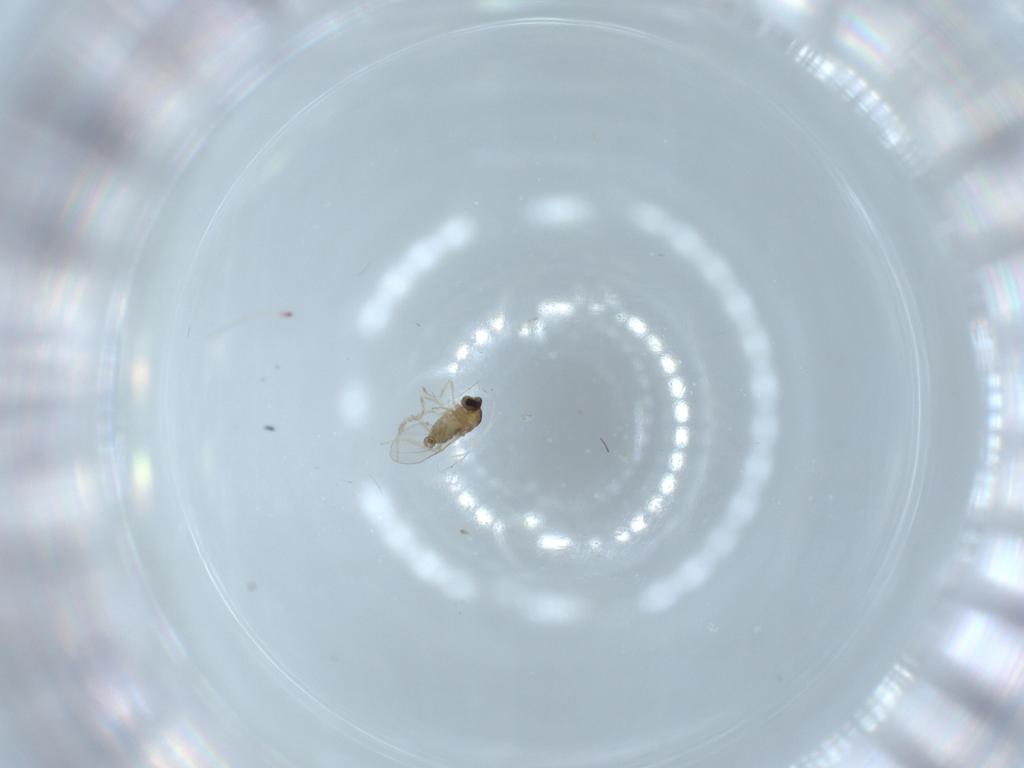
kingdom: Animalia
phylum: Arthropoda
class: Insecta
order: Diptera
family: Cecidomyiidae
